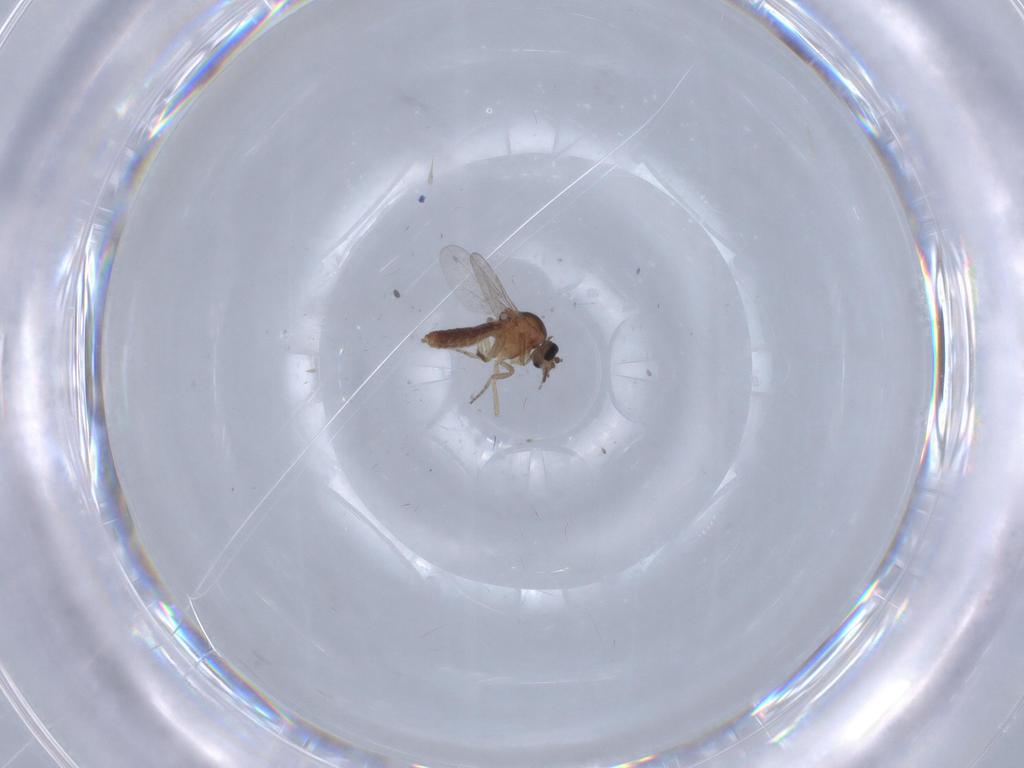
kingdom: Animalia
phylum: Arthropoda
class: Insecta
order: Diptera
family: Ceratopogonidae
